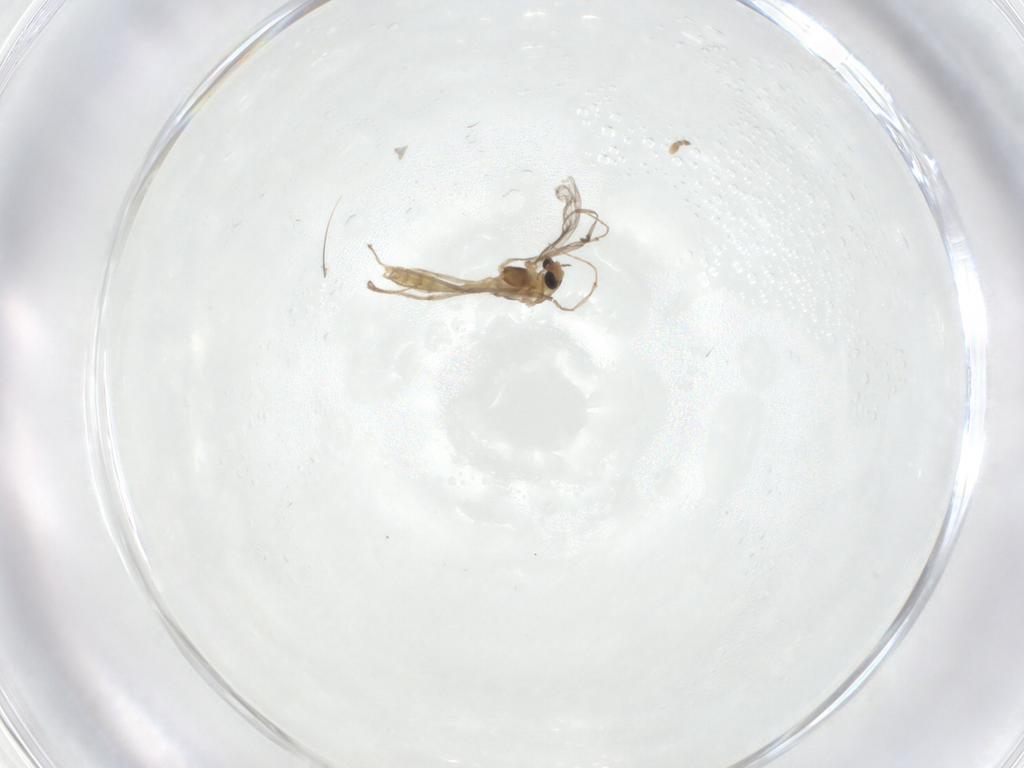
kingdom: Animalia
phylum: Arthropoda
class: Insecta
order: Diptera
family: Chironomidae
